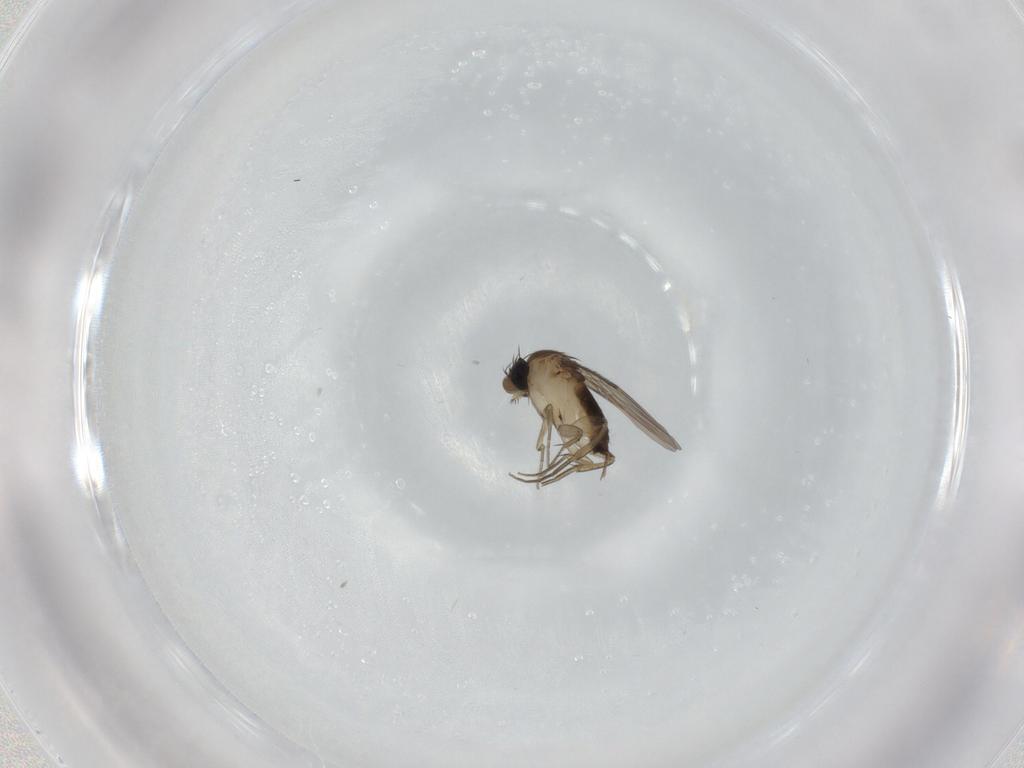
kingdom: Animalia
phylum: Arthropoda
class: Insecta
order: Diptera
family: Phoridae
